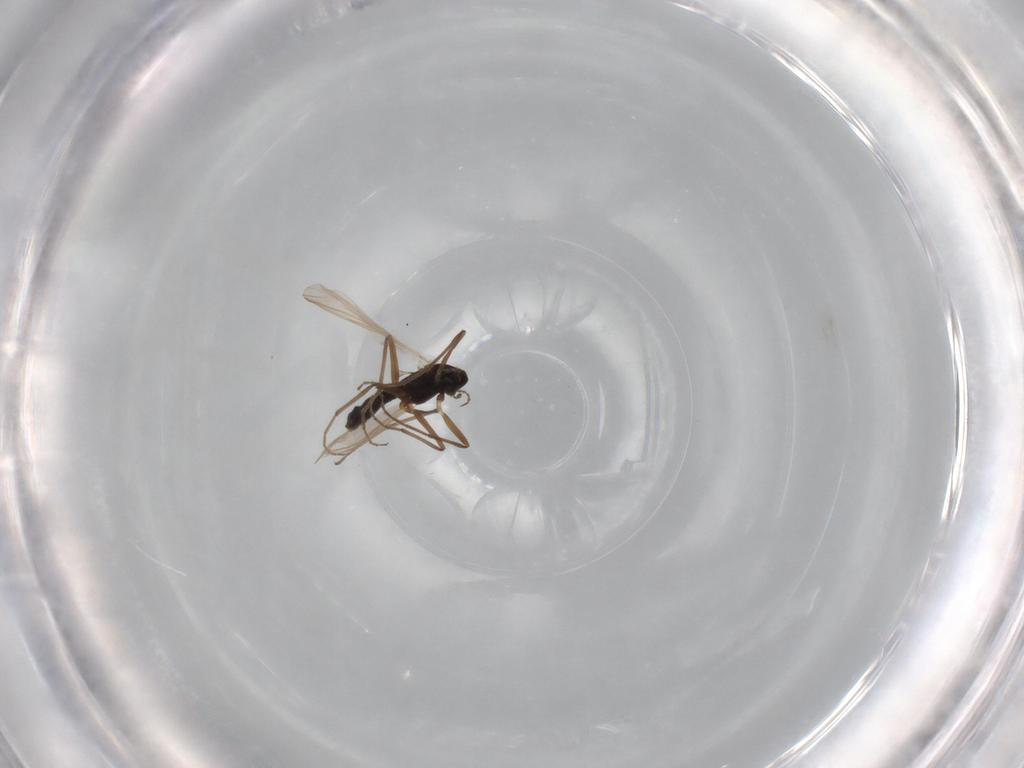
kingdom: Animalia
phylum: Arthropoda
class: Insecta
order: Diptera
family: Chironomidae
